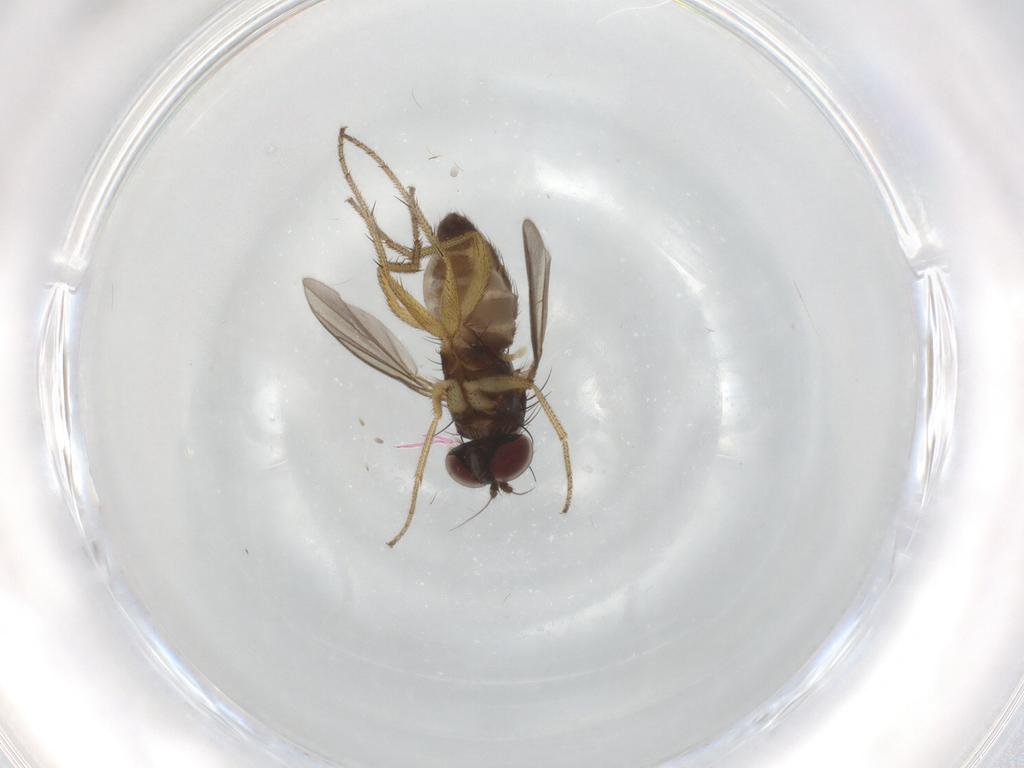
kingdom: Animalia
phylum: Arthropoda
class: Insecta
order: Diptera
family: Dolichopodidae
